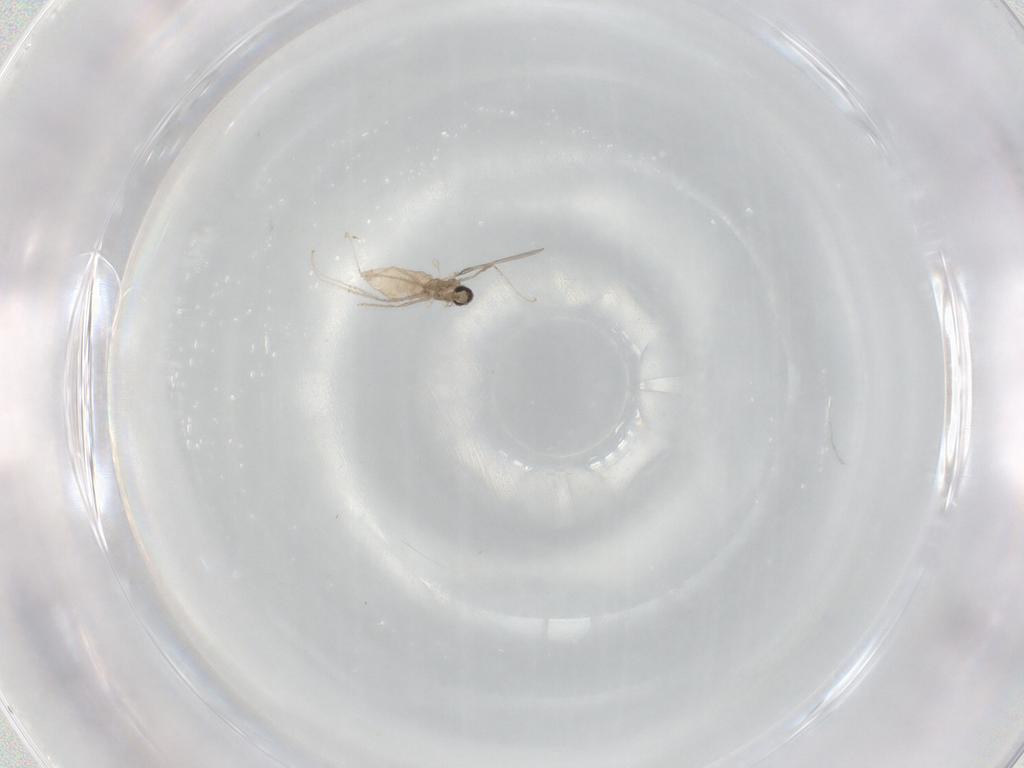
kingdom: Animalia
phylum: Arthropoda
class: Insecta
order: Diptera
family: Cecidomyiidae
